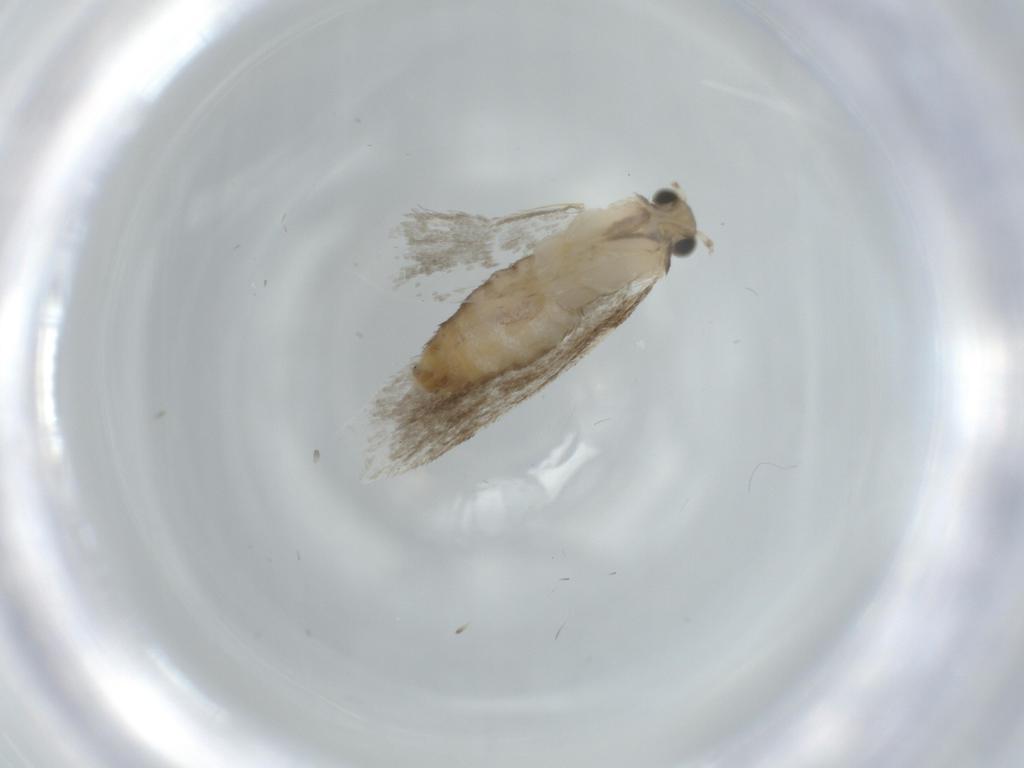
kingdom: Animalia
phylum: Arthropoda
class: Insecta
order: Lepidoptera
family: Tineidae
